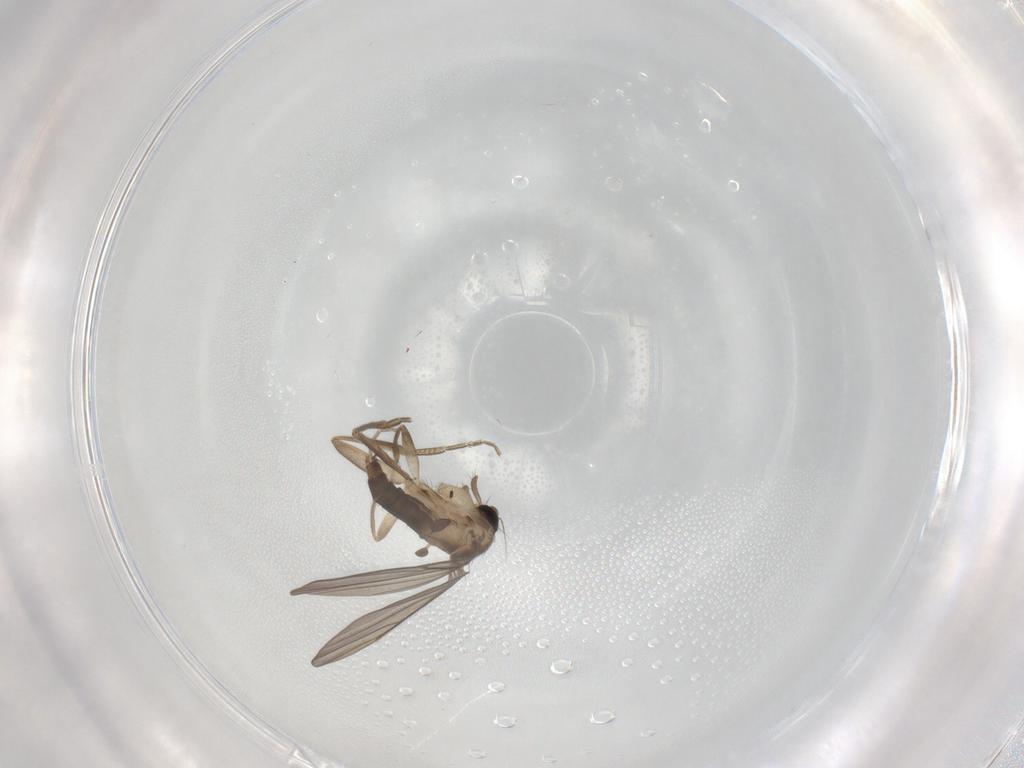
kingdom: Animalia
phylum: Arthropoda
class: Insecta
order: Diptera
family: Phoridae
